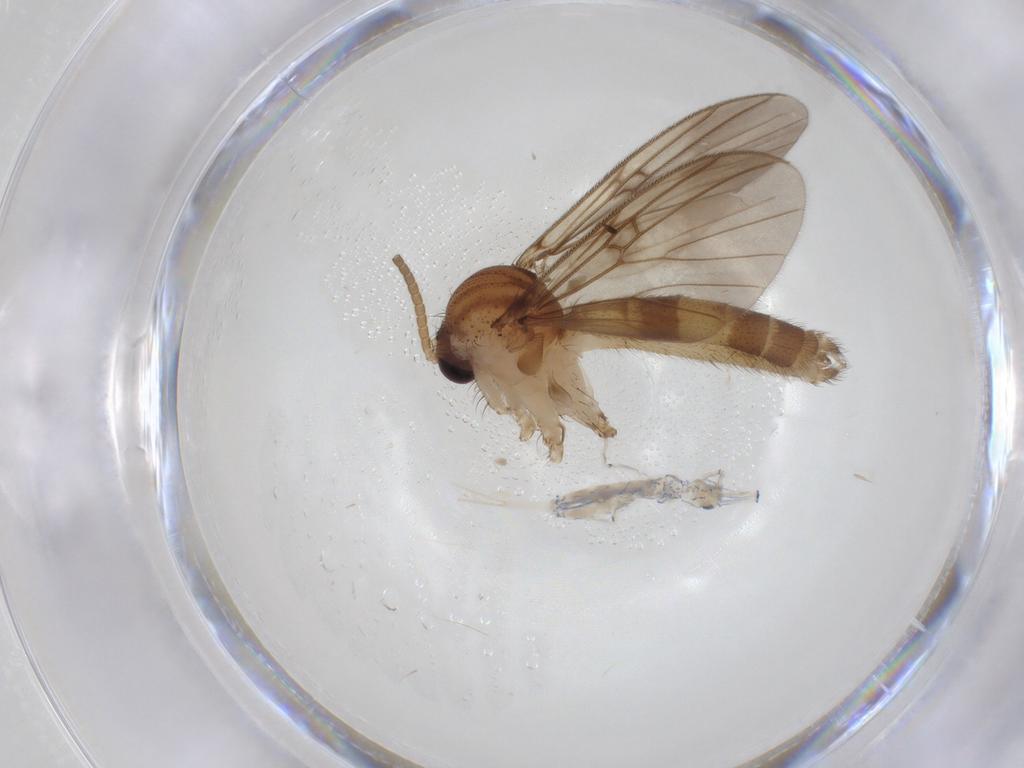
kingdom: Animalia
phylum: Arthropoda
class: Insecta
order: Diptera
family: Mycetophilidae
